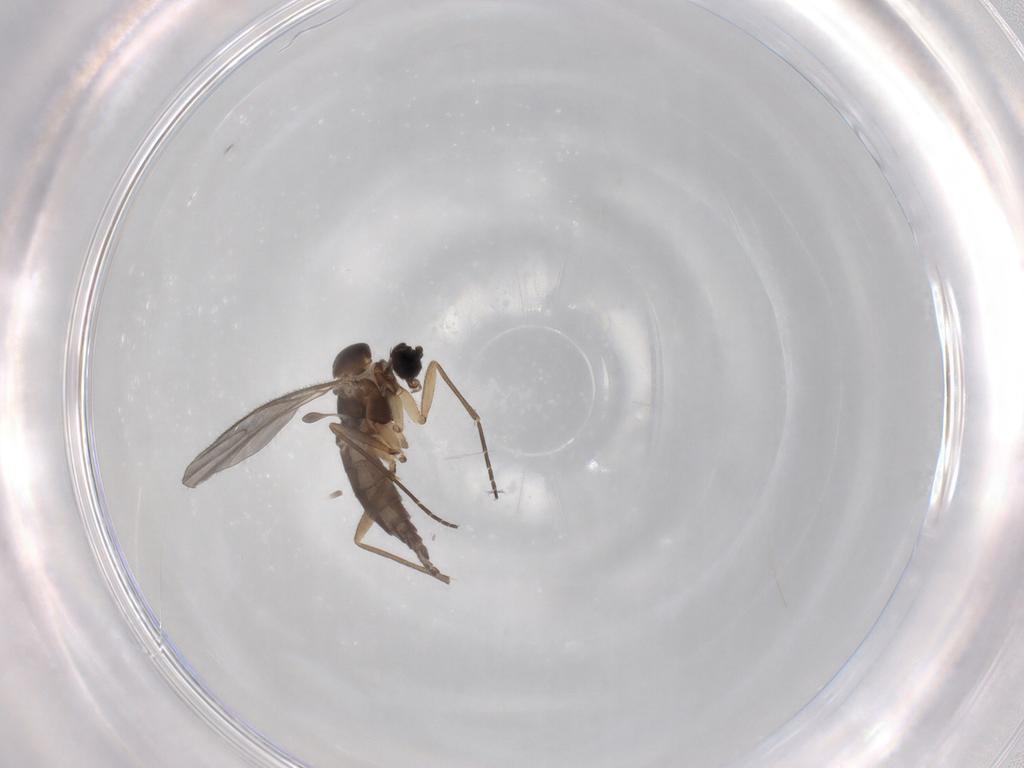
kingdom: Animalia
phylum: Arthropoda
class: Insecta
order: Diptera
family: Sciaridae
